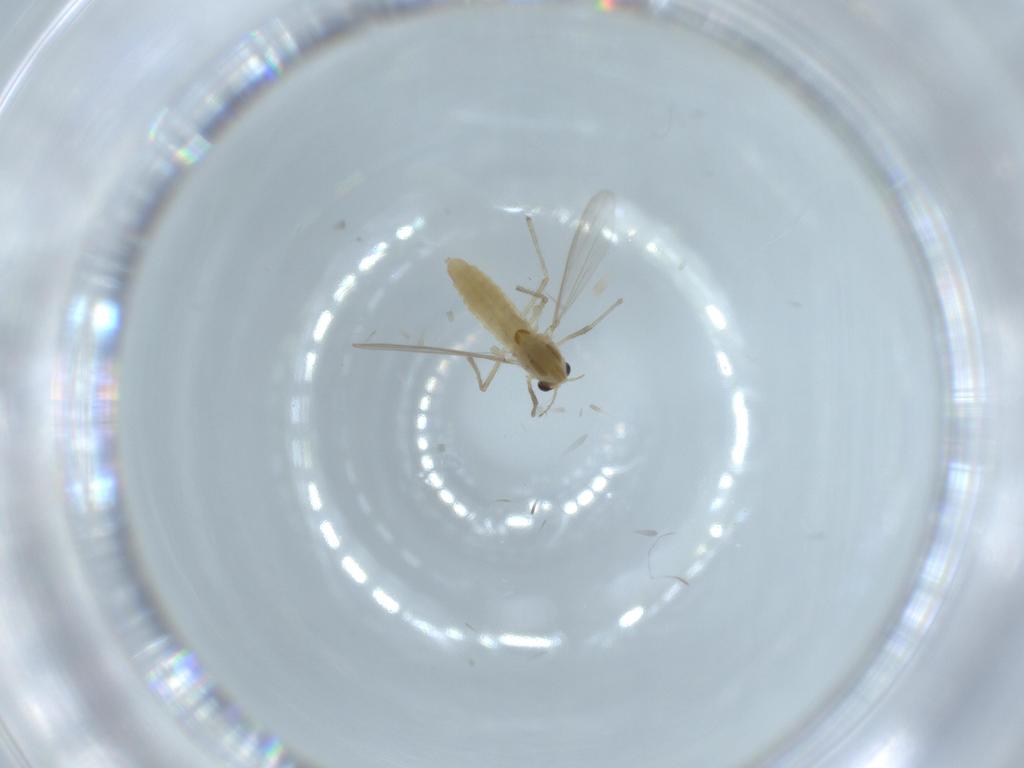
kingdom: Animalia
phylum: Arthropoda
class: Insecta
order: Diptera
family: Chironomidae
